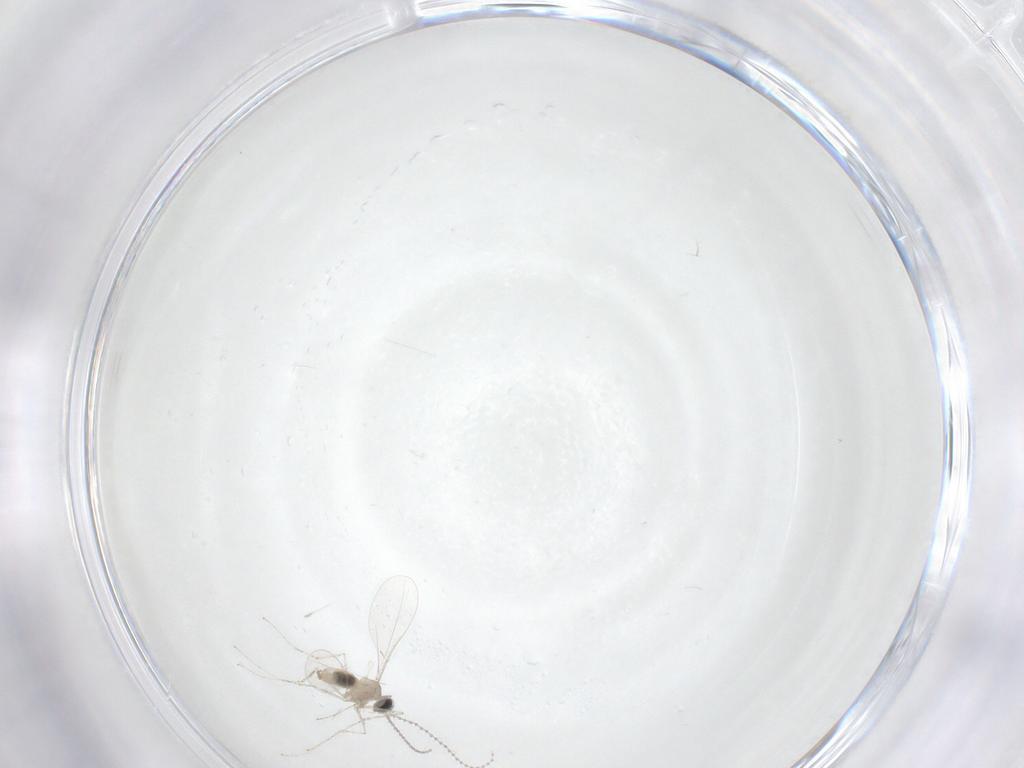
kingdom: Animalia
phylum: Arthropoda
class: Insecta
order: Diptera
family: Cecidomyiidae
